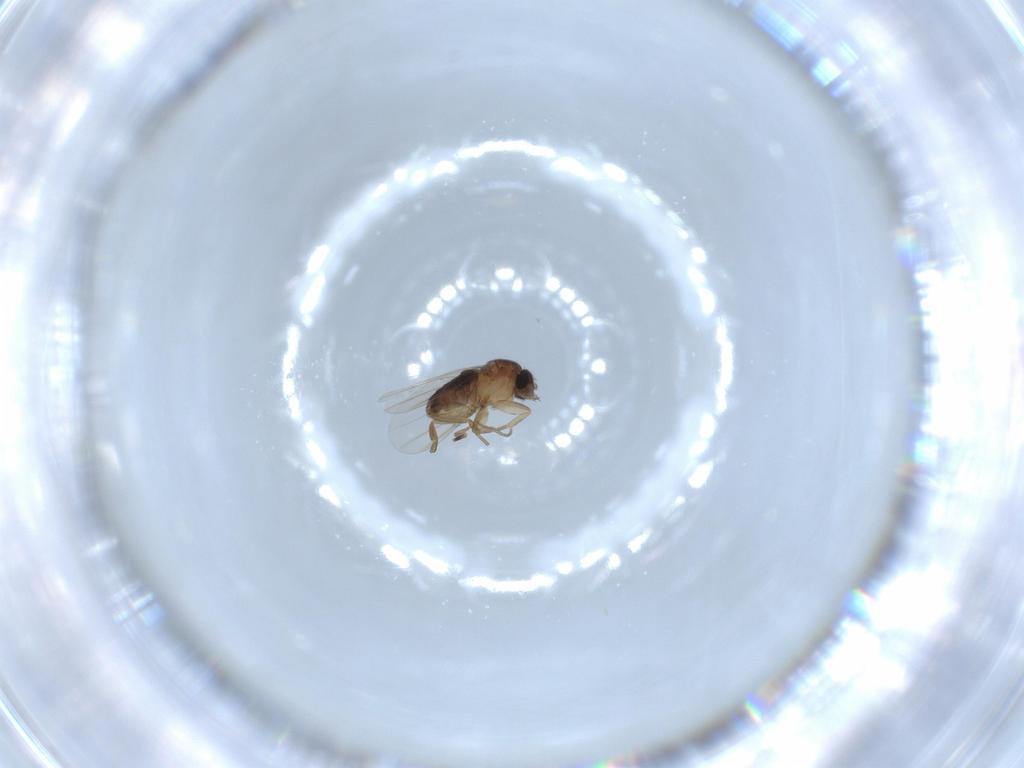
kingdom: Animalia
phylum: Arthropoda
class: Insecta
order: Diptera
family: Phoridae
